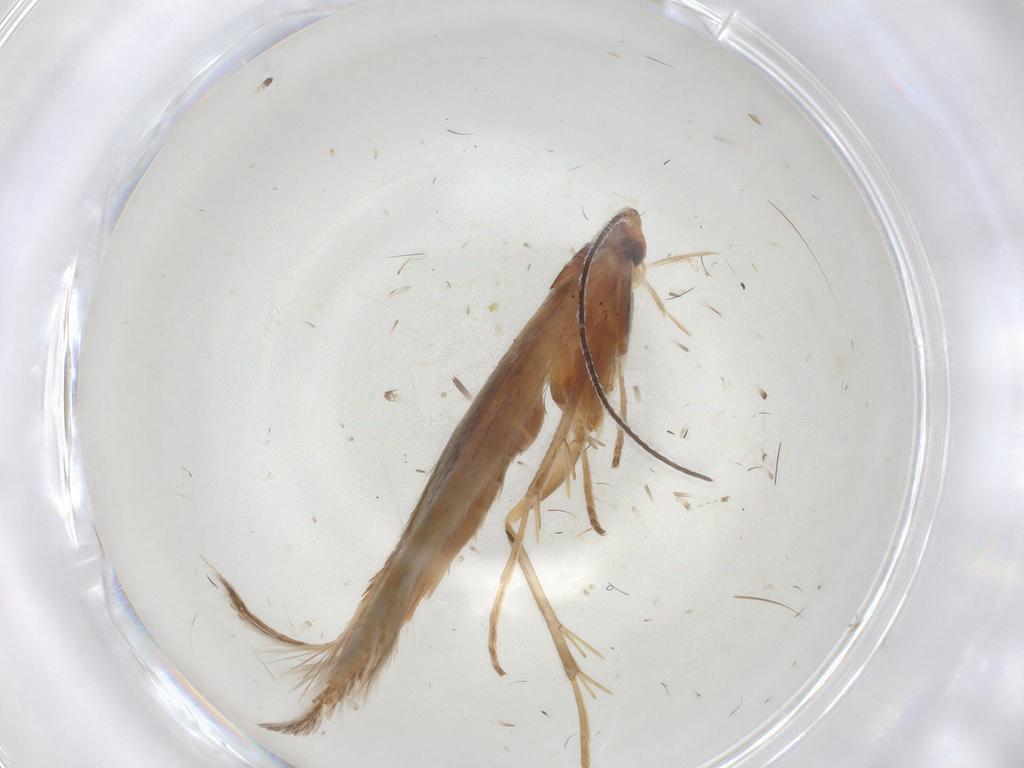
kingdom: Animalia
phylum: Arthropoda
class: Insecta
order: Lepidoptera
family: Coleophoridae
